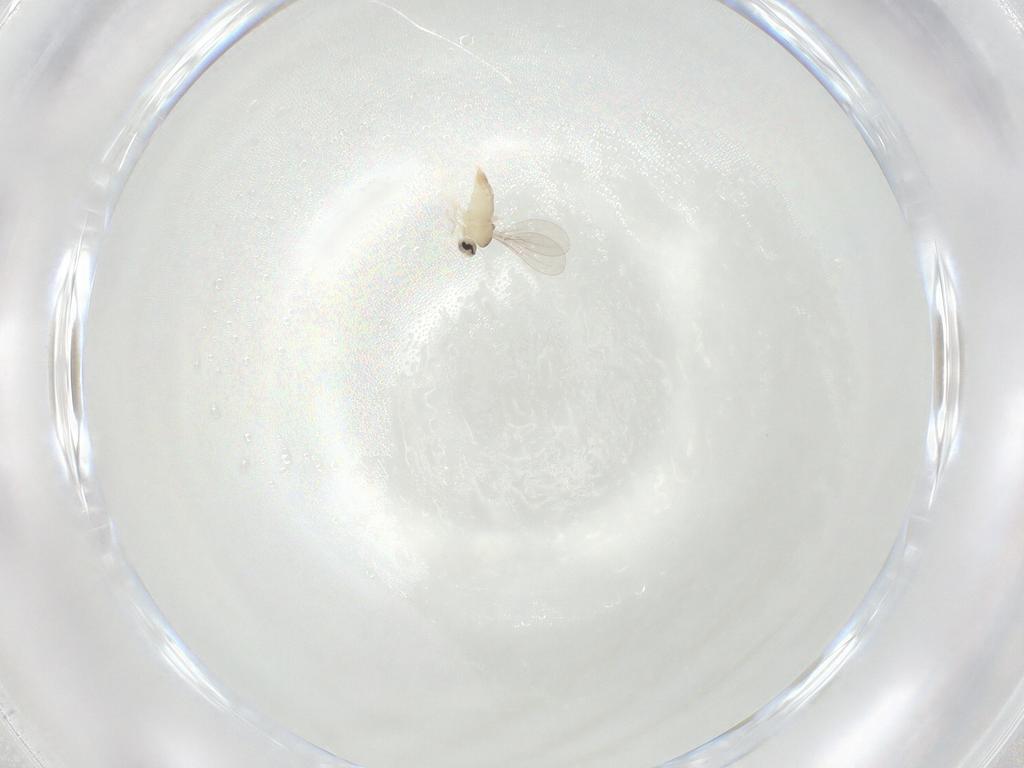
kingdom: Animalia
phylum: Arthropoda
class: Insecta
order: Diptera
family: Cecidomyiidae
